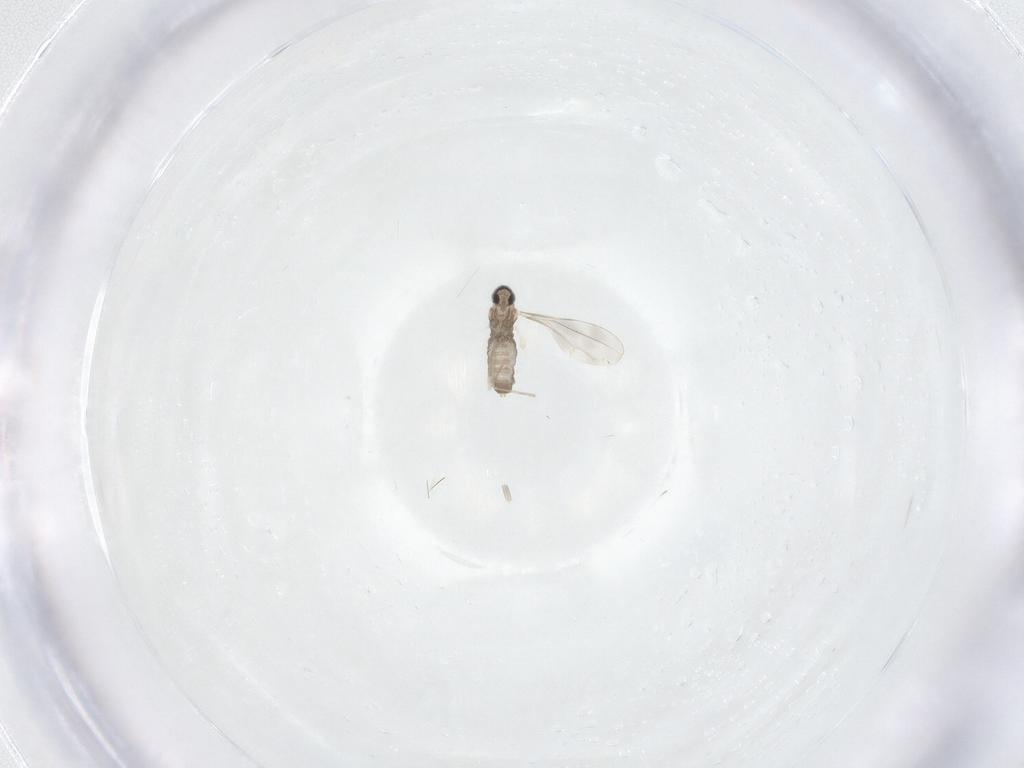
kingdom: Animalia
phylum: Arthropoda
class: Insecta
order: Diptera
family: Cecidomyiidae
